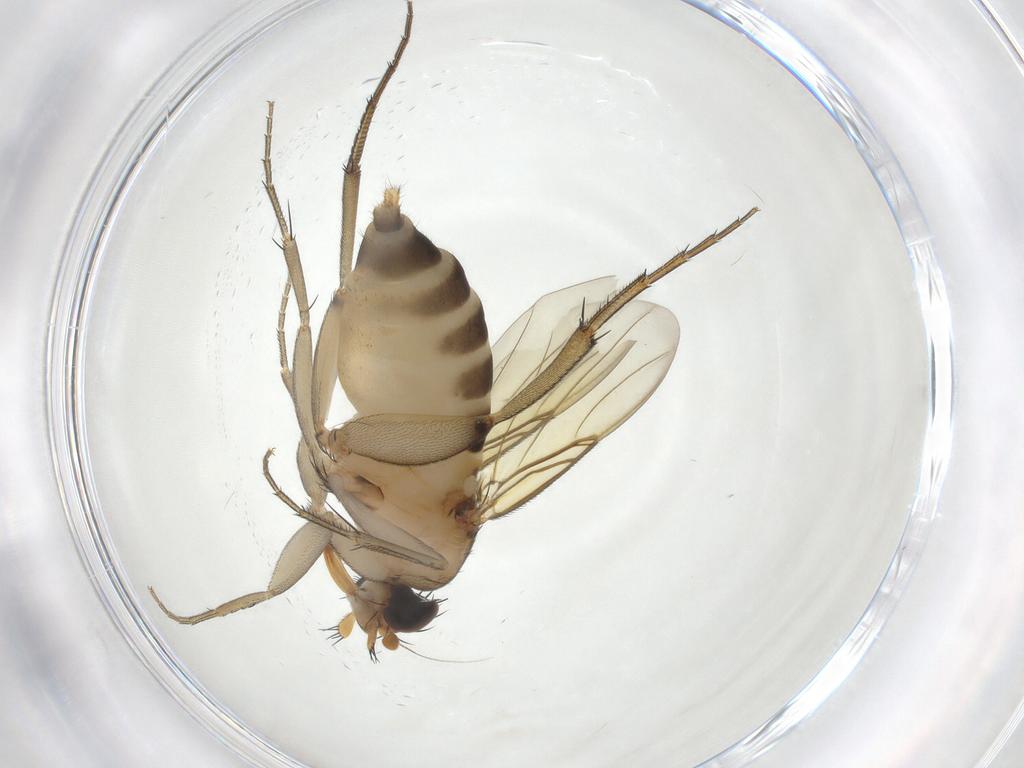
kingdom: Animalia
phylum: Arthropoda
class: Insecta
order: Diptera
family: Phoridae
